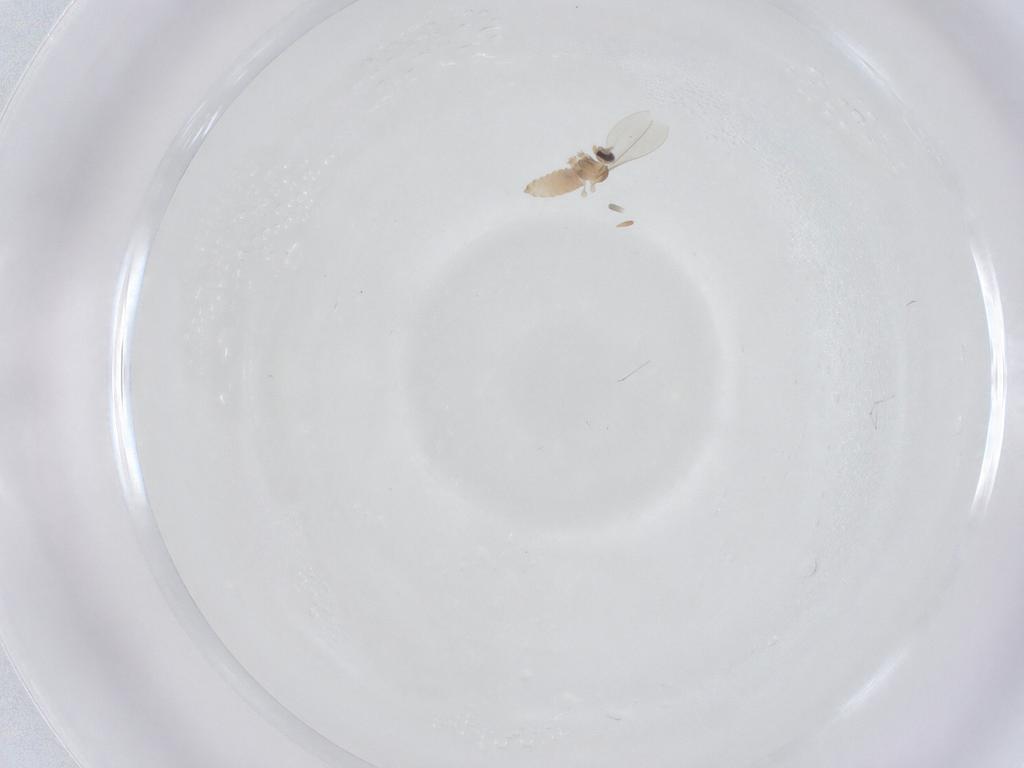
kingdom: Animalia
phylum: Arthropoda
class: Insecta
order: Diptera
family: Cecidomyiidae
